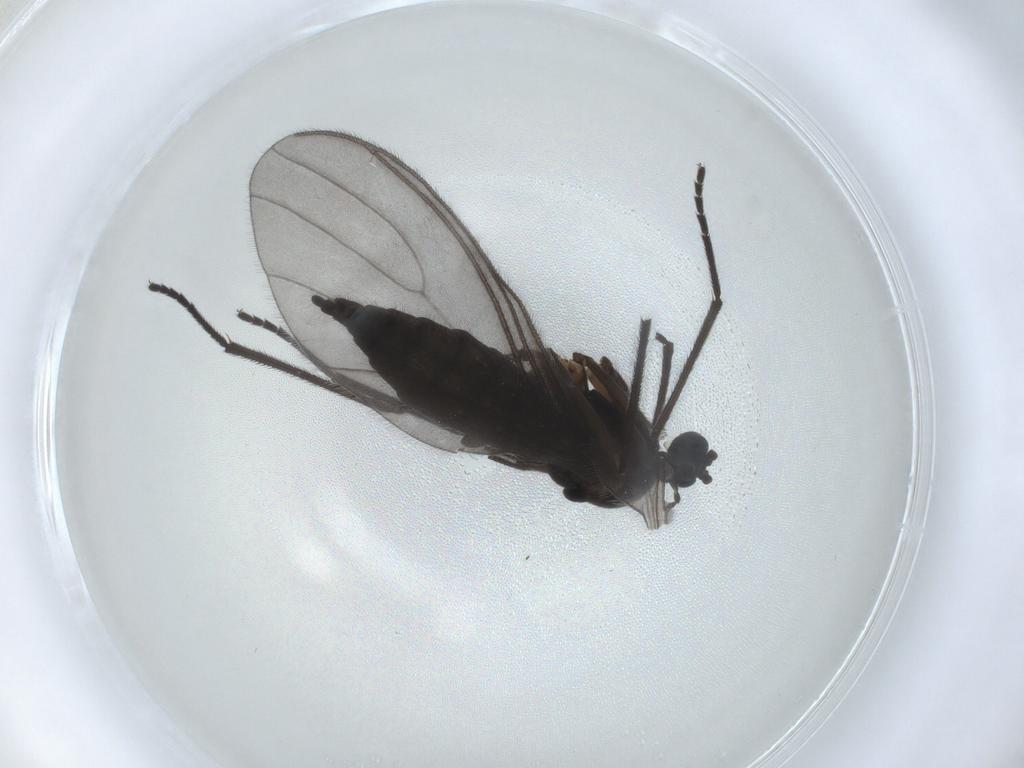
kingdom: Animalia
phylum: Arthropoda
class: Insecta
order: Diptera
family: Sciaridae
